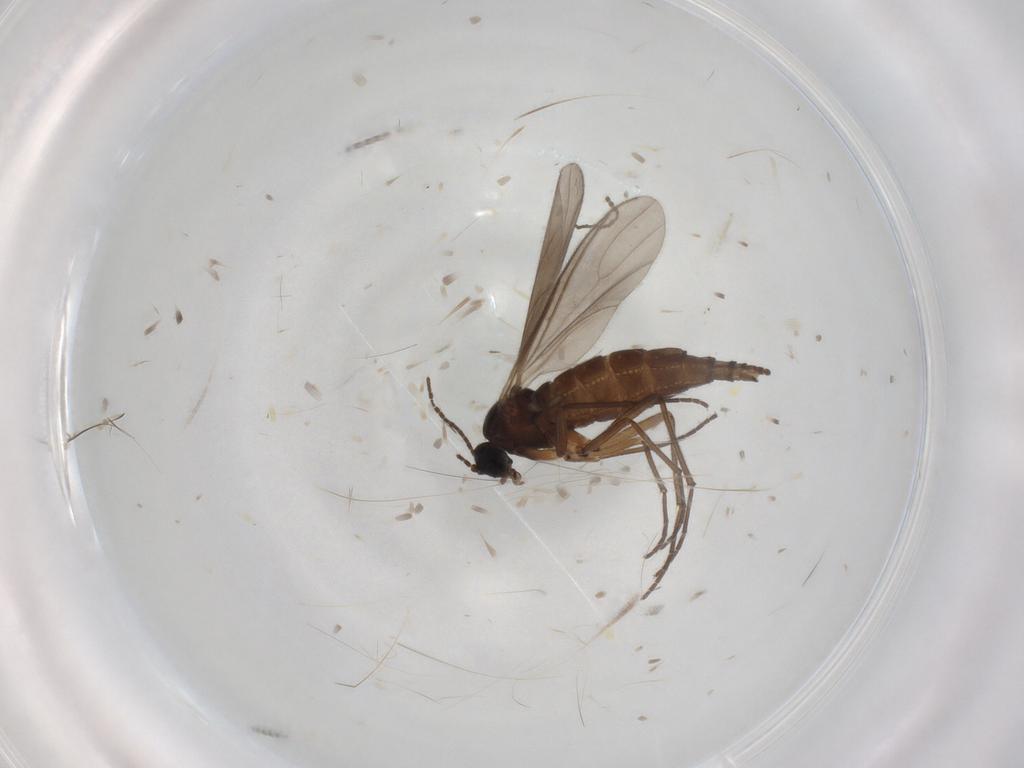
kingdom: Animalia
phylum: Arthropoda
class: Insecta
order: Diptera
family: Sciaridae
